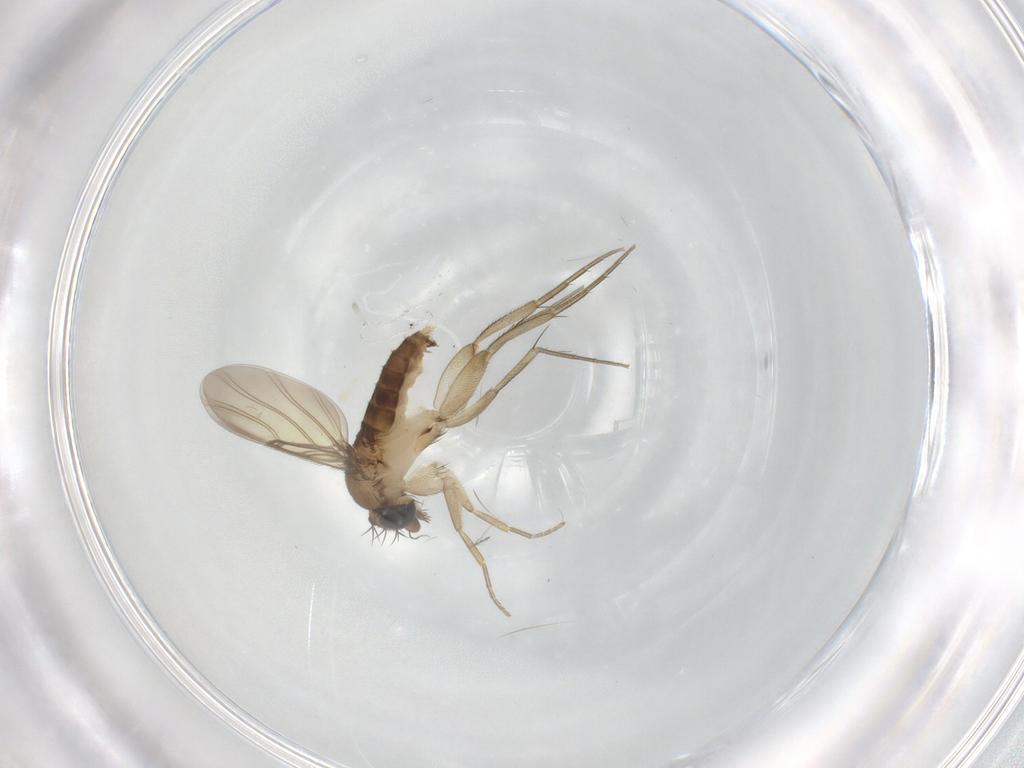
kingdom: Animalia
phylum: Arthropoda
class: Insecta
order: Diptera
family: Phoridae
